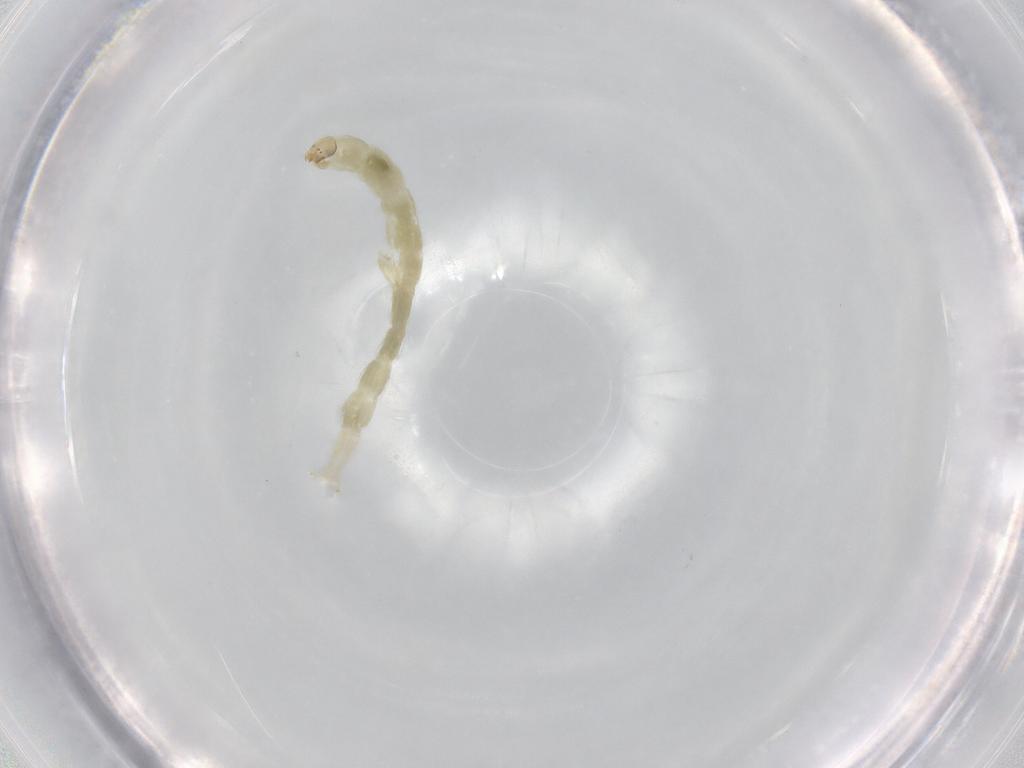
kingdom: Animalia
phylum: Arthropoda
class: Insecta
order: Diptera
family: Chironomidae
